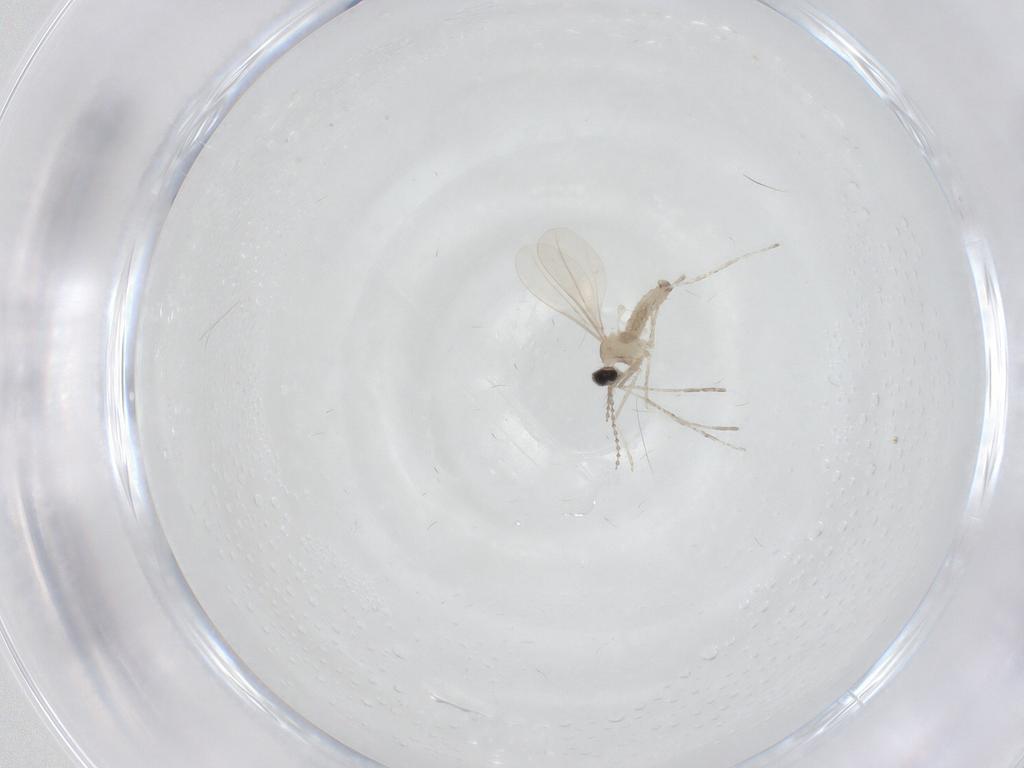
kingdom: Animalia
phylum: Arthropoda
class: Insecta
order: Diptera
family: Cecidomyiidae
